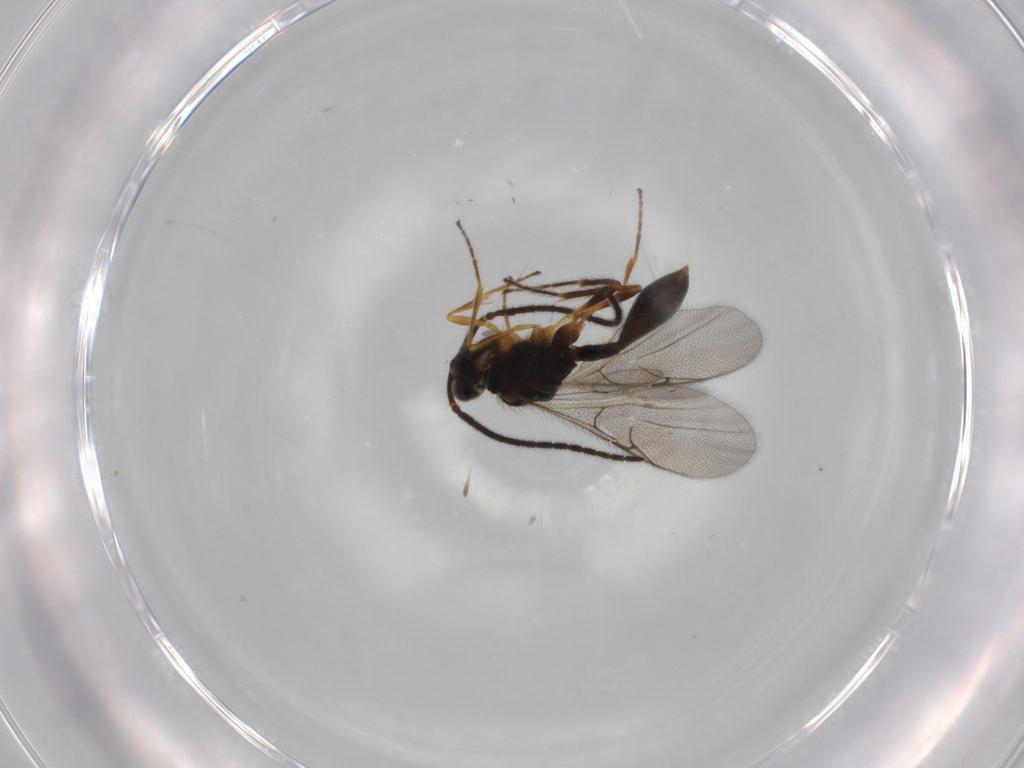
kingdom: Animalia
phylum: Arthropoda
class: Insecta
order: Hymenoptera
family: Diapriidae
